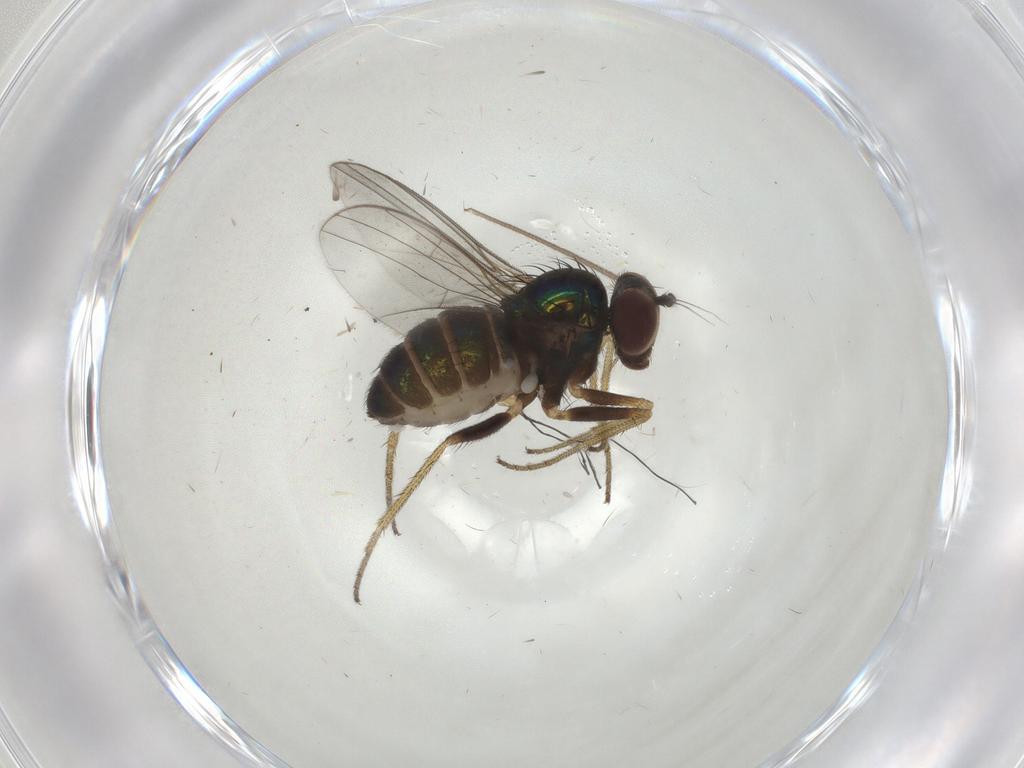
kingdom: Animalia
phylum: Arthropoda
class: Insecta
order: Diptera
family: Dolichopodidae
